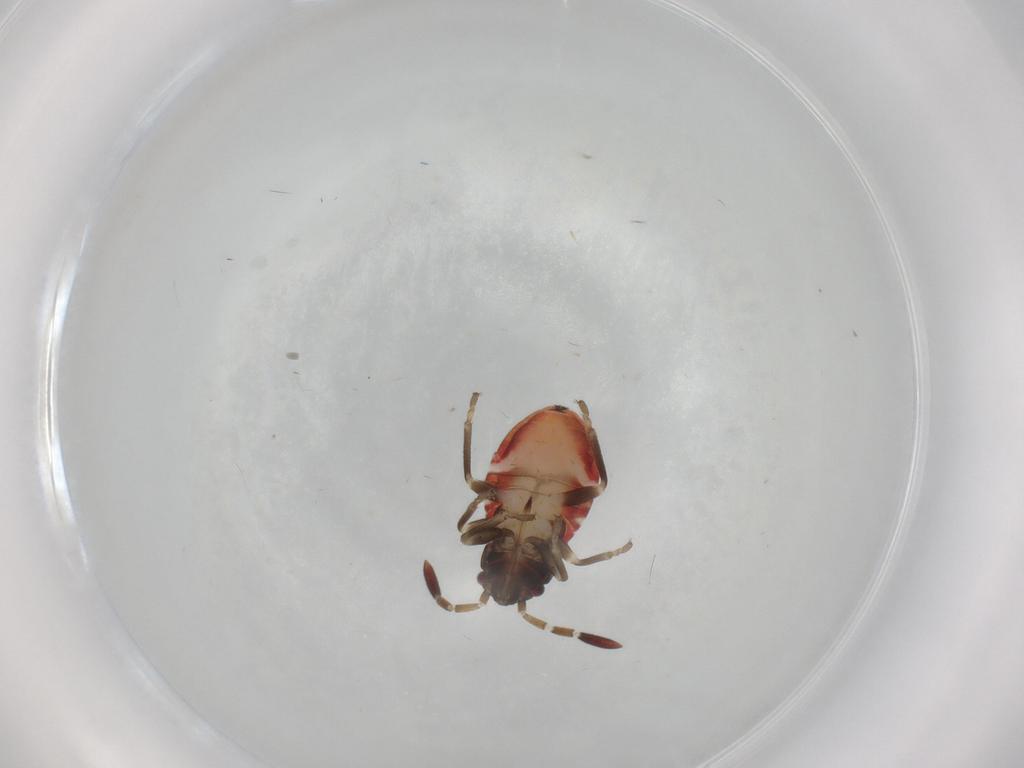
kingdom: Animalia
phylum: Arthropoda
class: Insecta
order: Hemiptera
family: Rhyparochromidae
